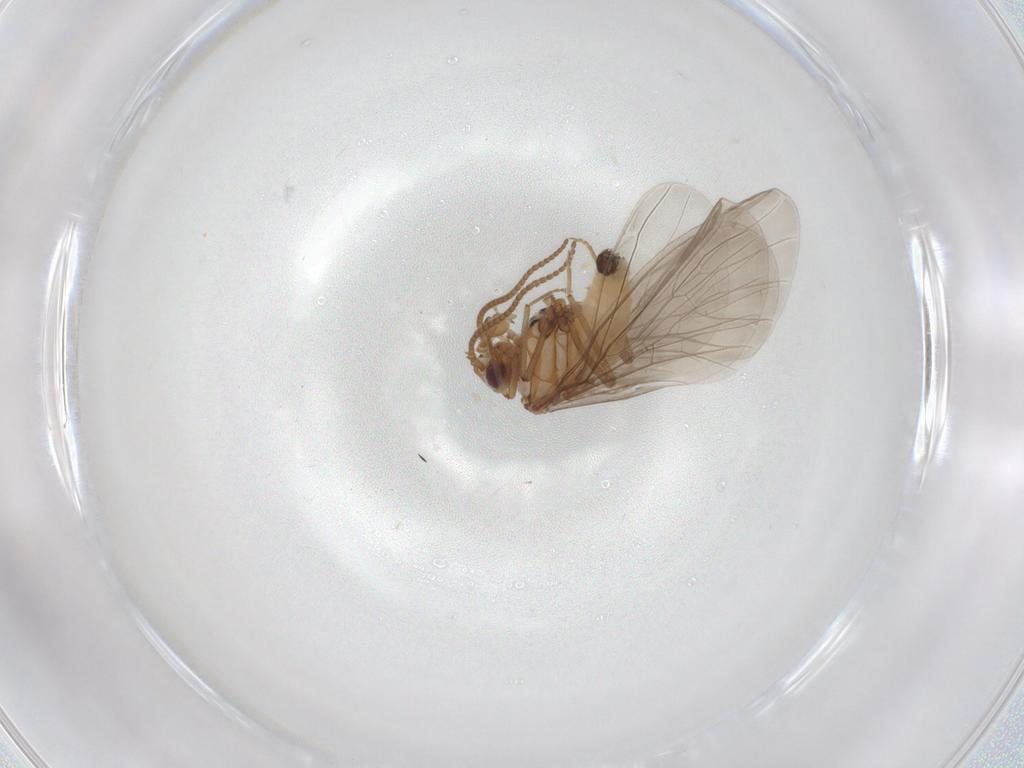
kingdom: Animalia
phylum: Arthropoda
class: Insecta
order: Neuroptera
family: Coniopterygidae
